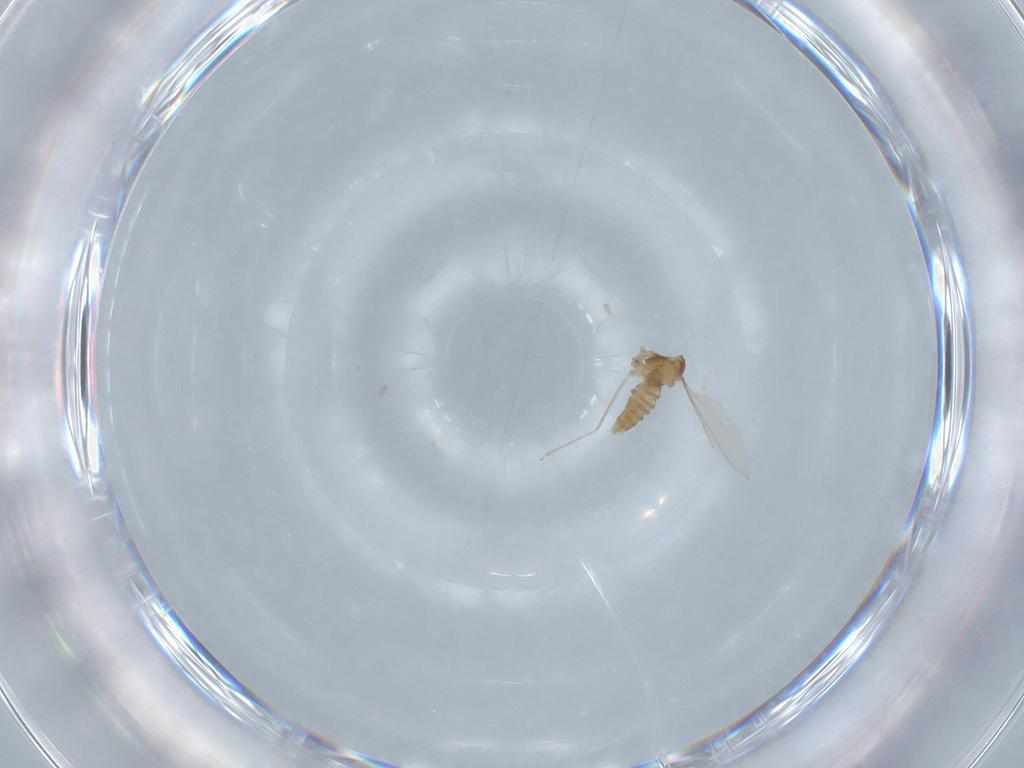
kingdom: Animalia
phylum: Arthropoda
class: Insecta
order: Diptera
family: Cecidomyiidae
